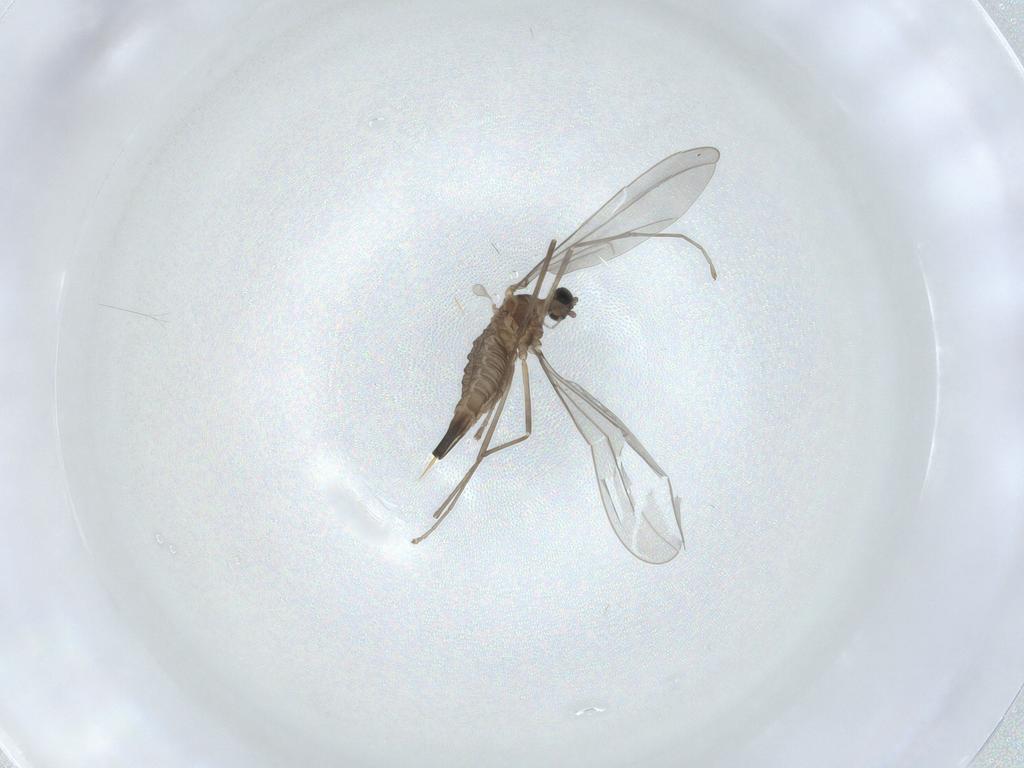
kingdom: Animalia
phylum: Arthropoda
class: Insecta
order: Diptera
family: Cecidomyiidae
